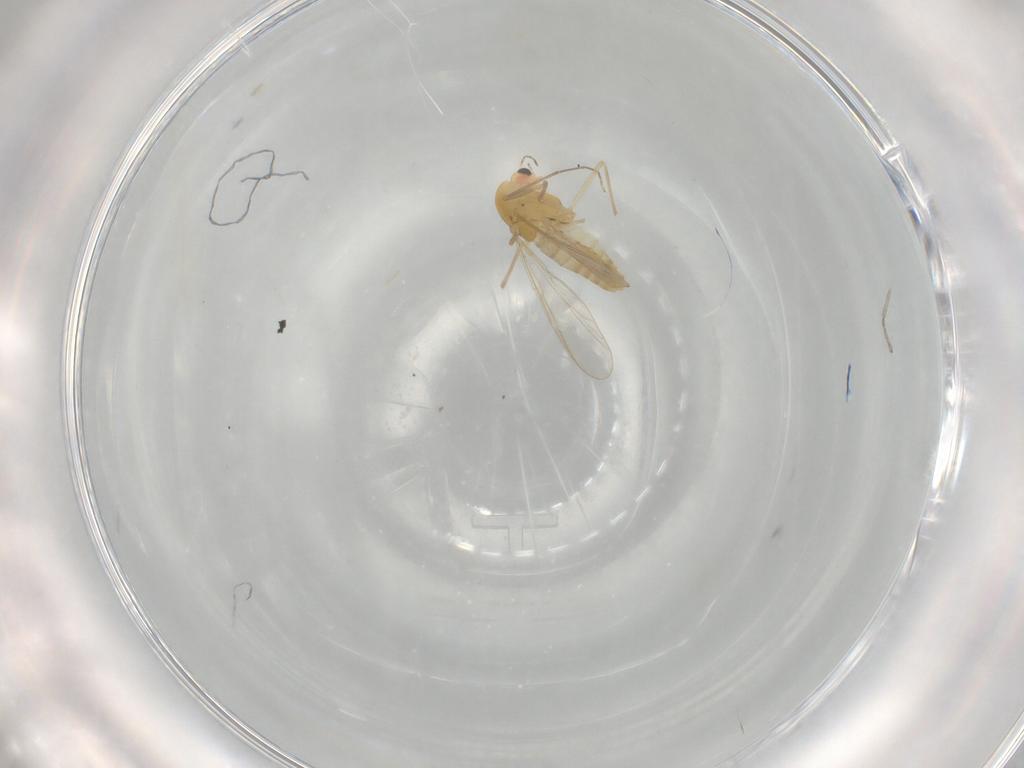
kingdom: Animalia
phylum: Arthropoda
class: Insecta
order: Diptera
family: Chironomidae
